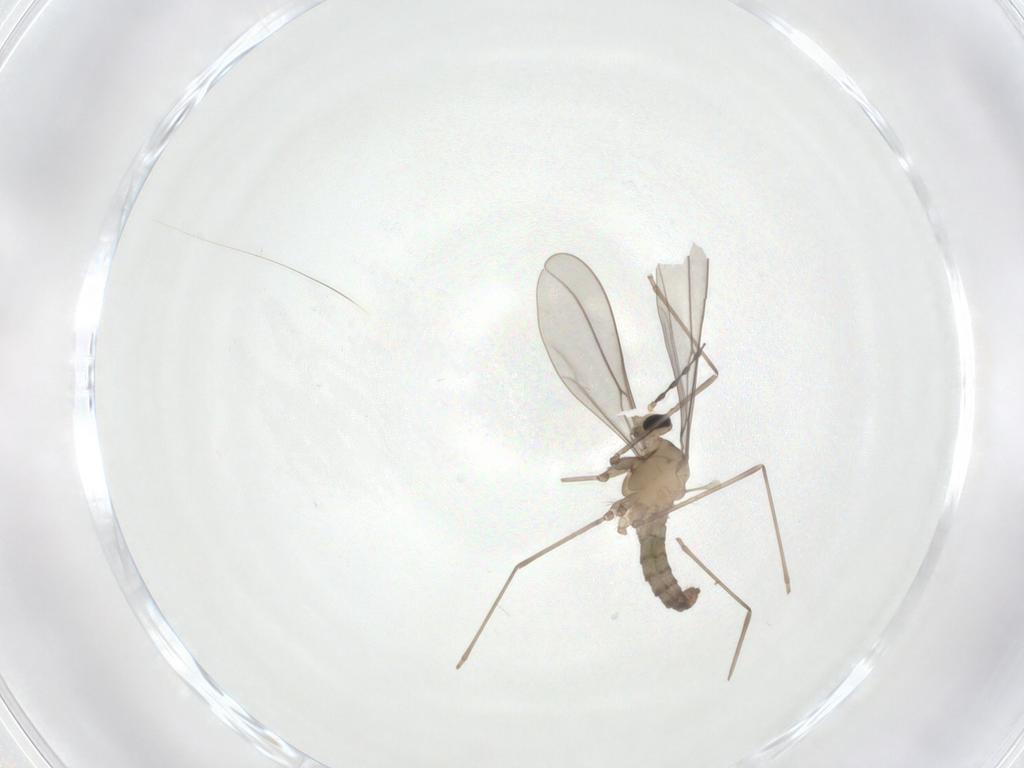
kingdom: Animalia
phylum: Arthropoda
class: Insecta
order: Diptera
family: Cecidomyiidae
